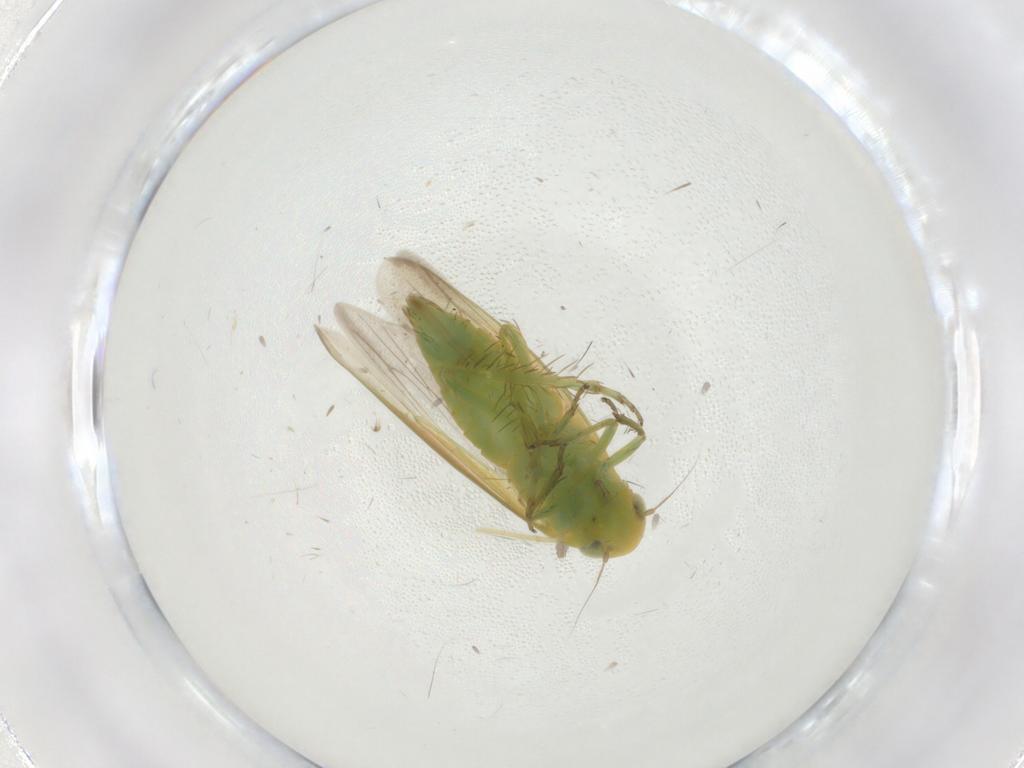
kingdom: Animalia
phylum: Arthropoda
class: Insecta
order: Hemiptera
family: Cicadellidae
